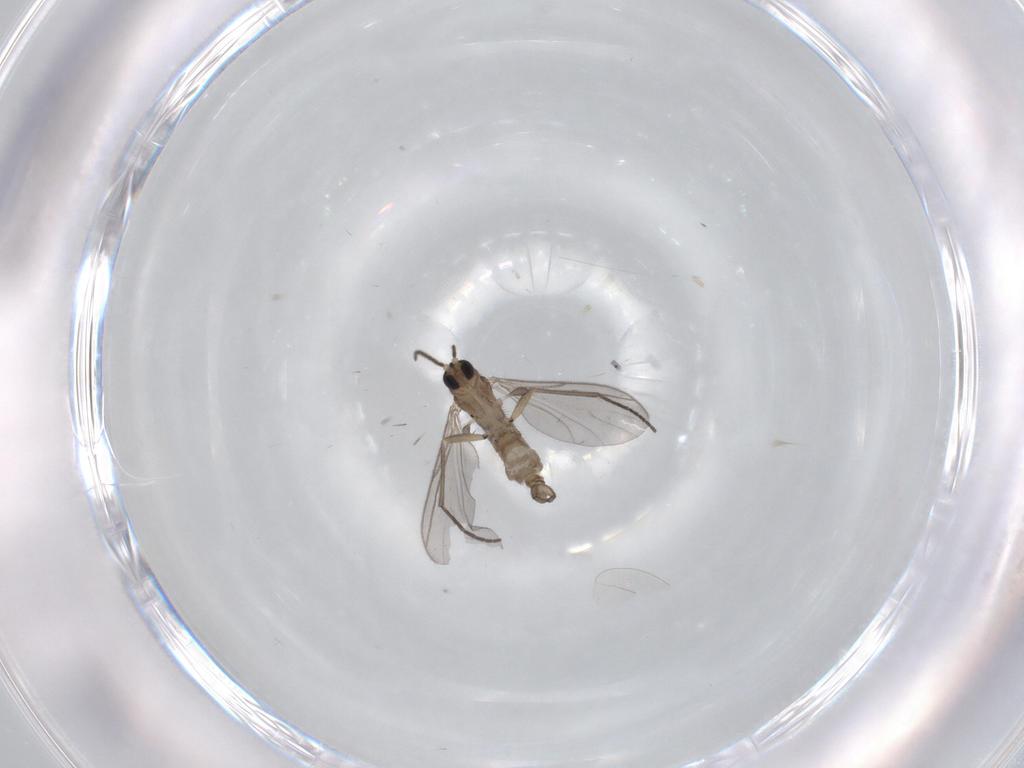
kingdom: Animalia
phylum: Arthropoda
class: Insecta
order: Diptera
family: Sciaridae
